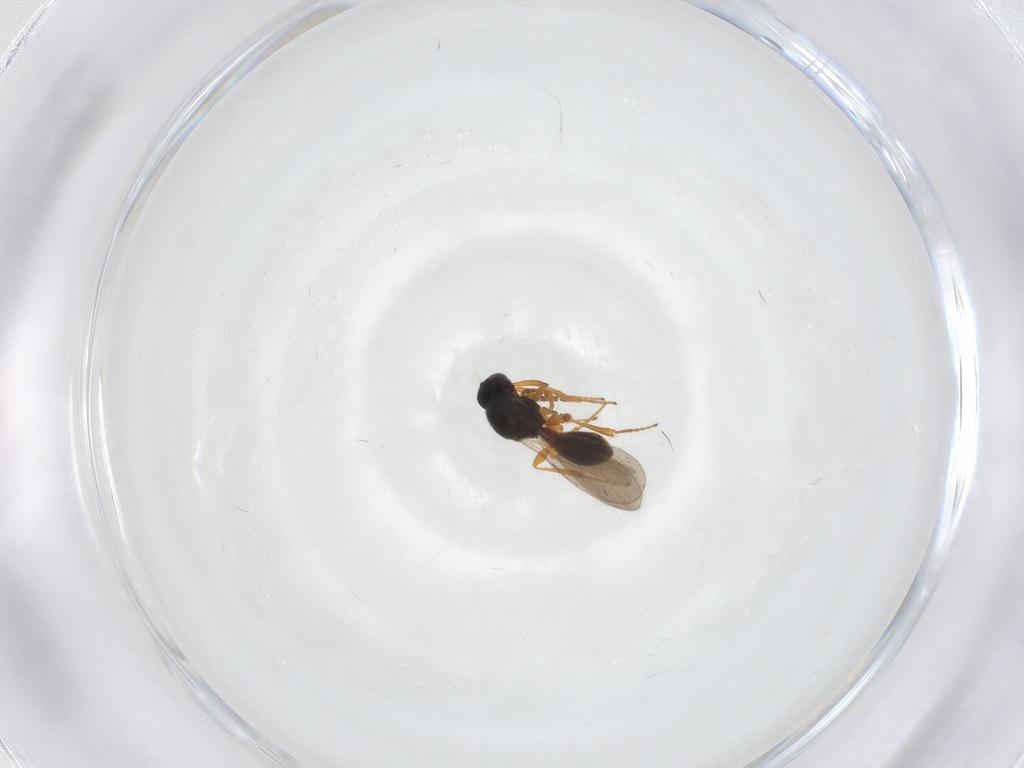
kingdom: Animalia
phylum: Arthropoda
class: Insecta
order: Hymenoptera
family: Platygastridae
